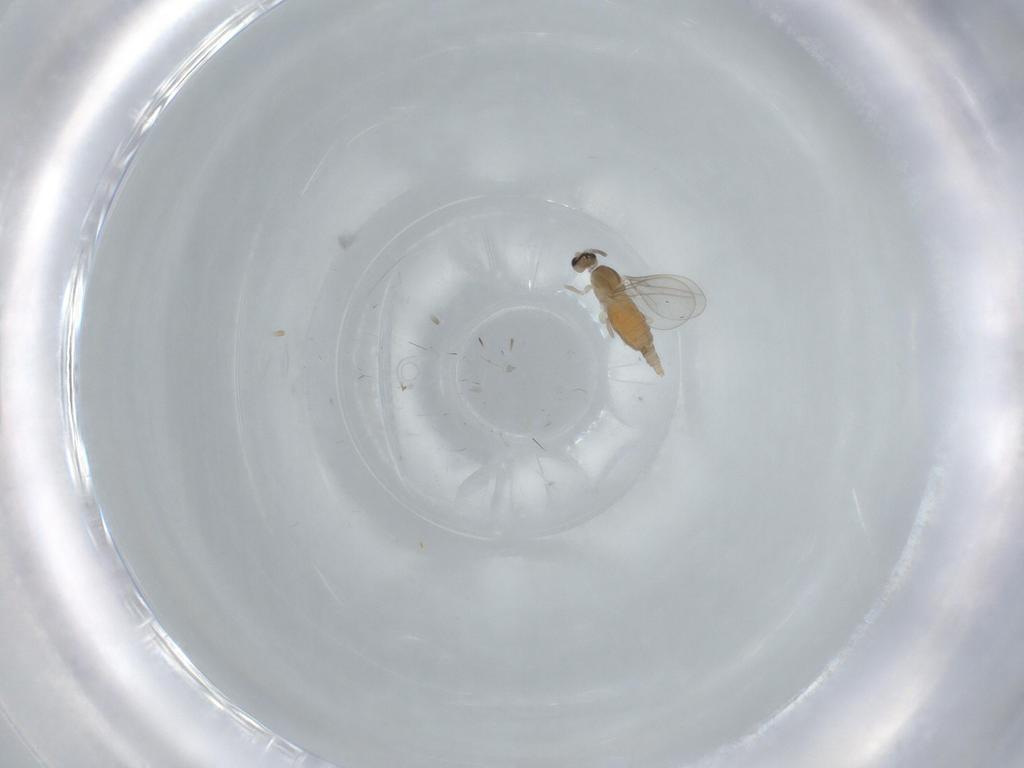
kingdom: Animalia
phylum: Arthropoda
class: Insecta
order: Diptera
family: Cecidomyiidae
